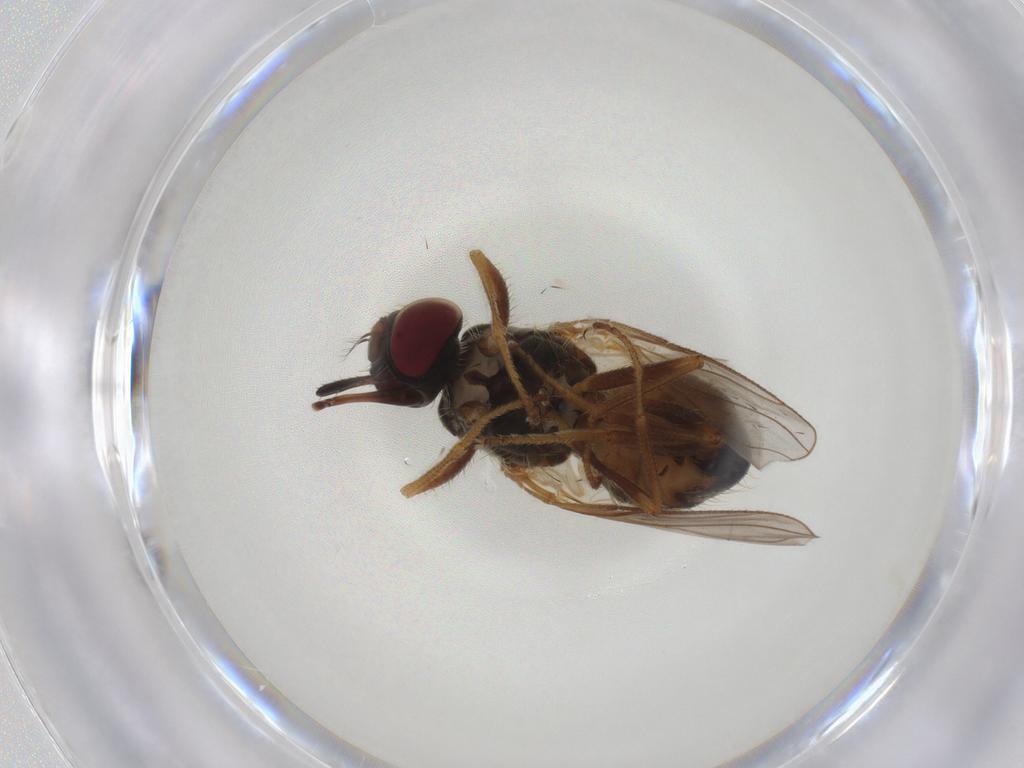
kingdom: Animalia
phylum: Arthropoda
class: Insecta
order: Diptera
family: Muscidae
